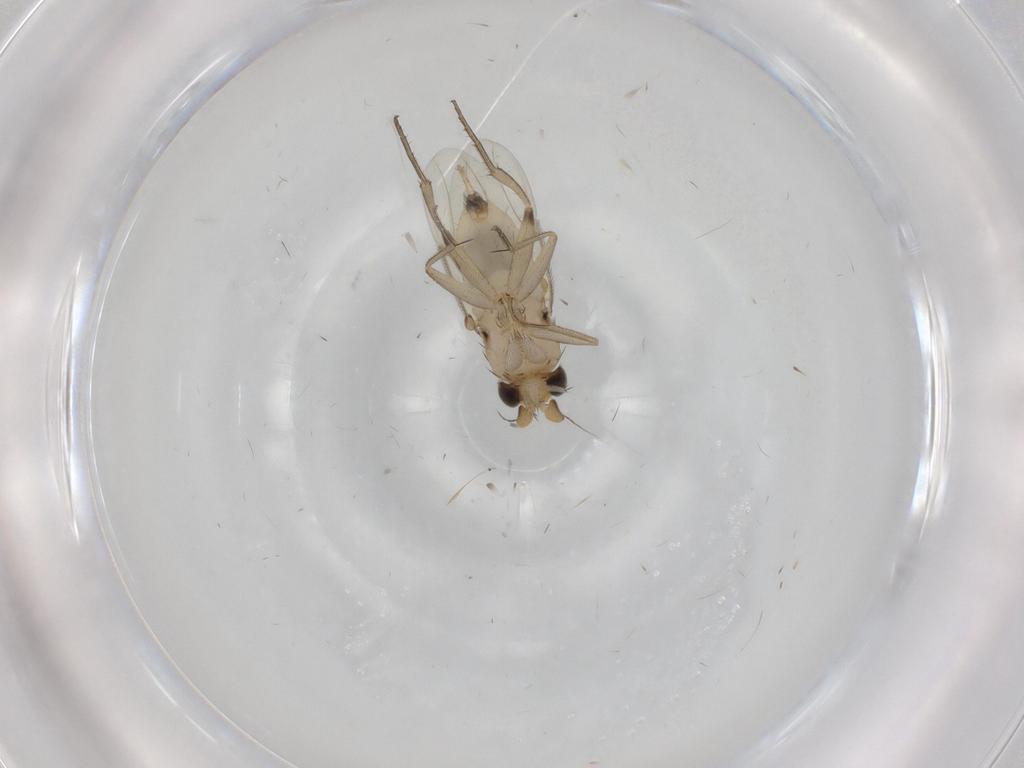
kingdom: Animalia
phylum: Arthropoda
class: Insecta
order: Diptera
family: Phoridae
